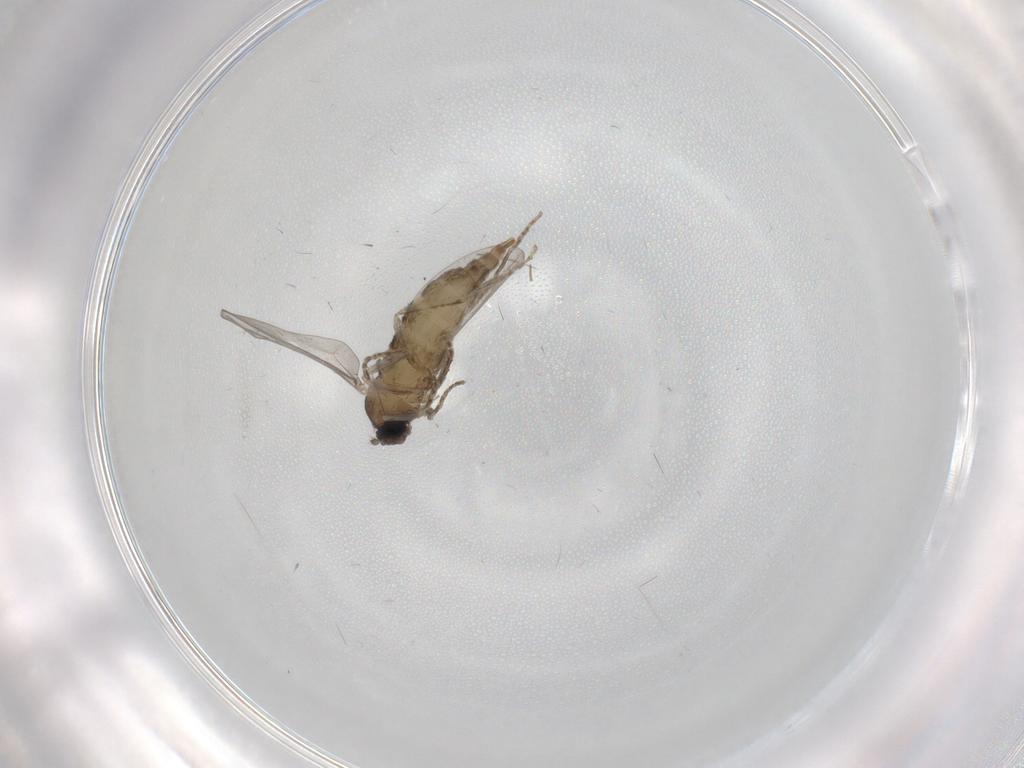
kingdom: Animalia
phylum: Arthropoda
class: Insecta
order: Diptera
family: Cecidomyiidae
